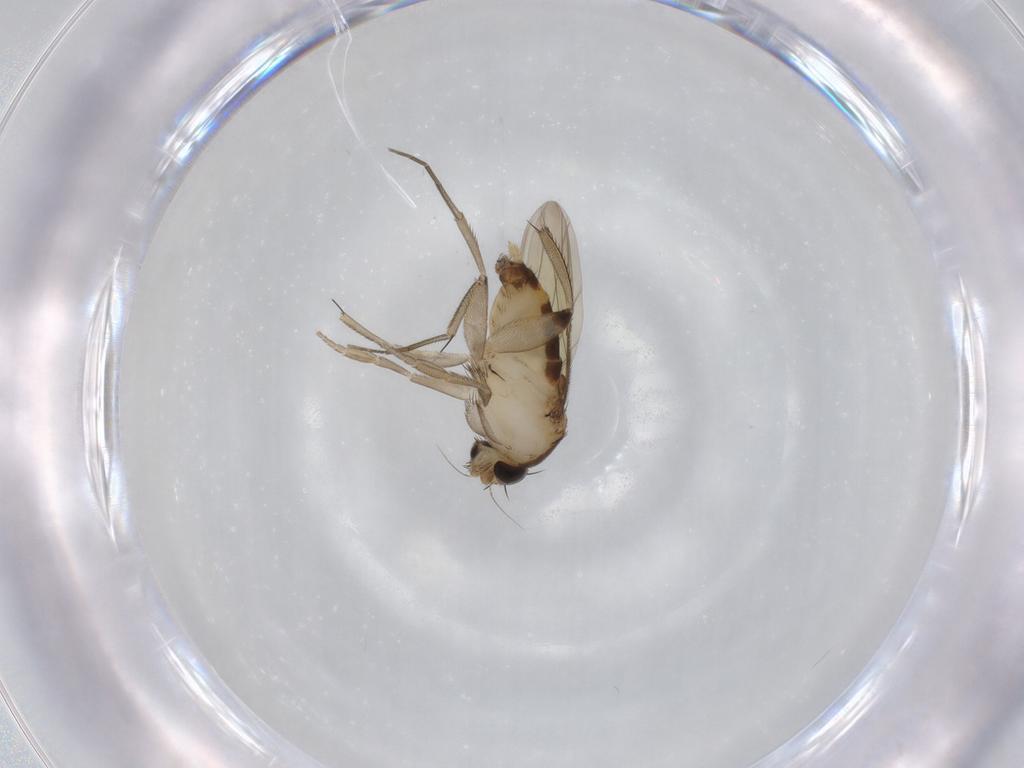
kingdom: Animalia
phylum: Arthropoda
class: Insecta
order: Diptera
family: Phoridae
